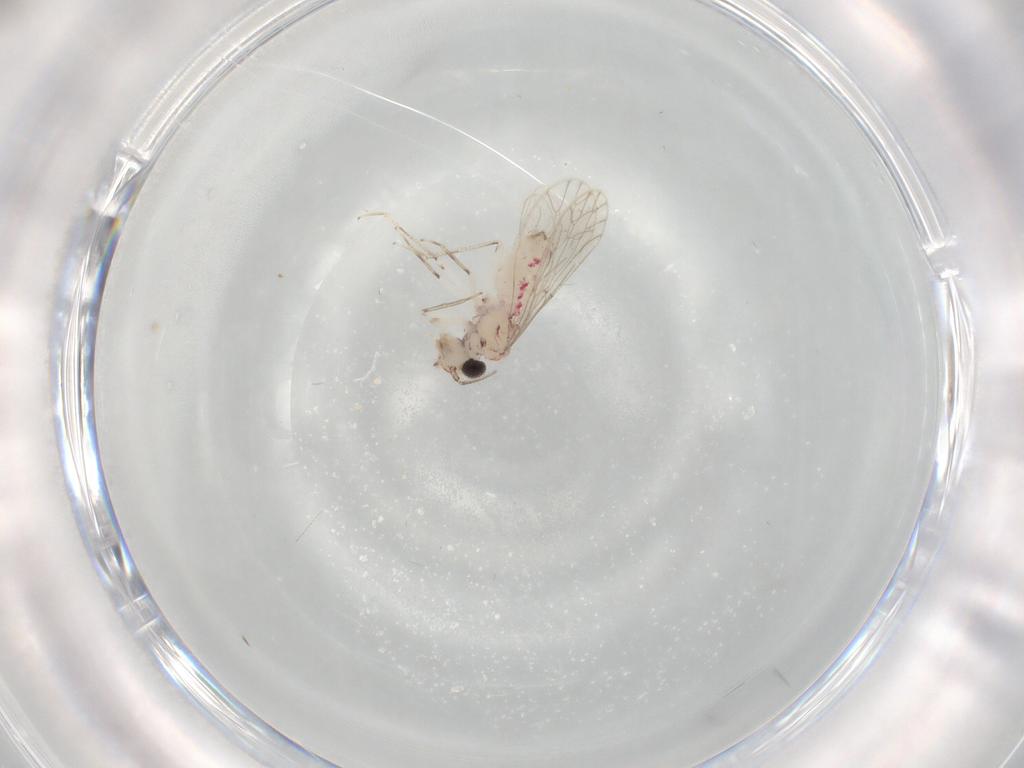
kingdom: Animalia
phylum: Arthropoda
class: Insecta
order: Psocodea
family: Caeciliusidae
